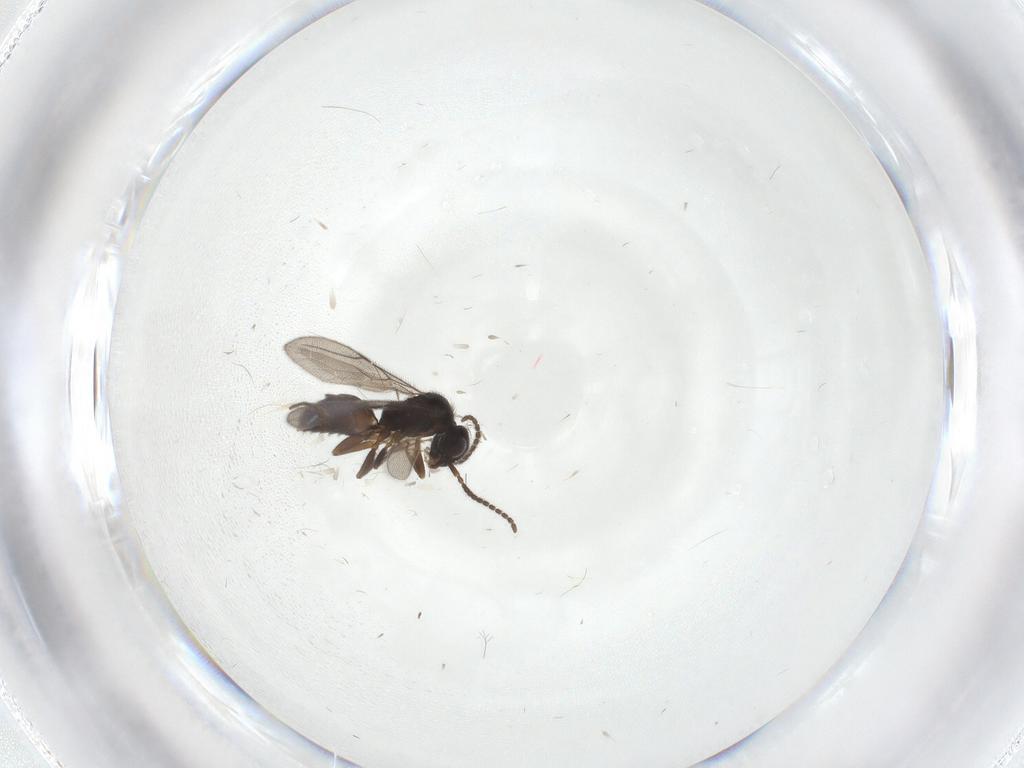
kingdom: Animalia
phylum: Arthropoda
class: Insecta
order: Hymenoptera
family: Bethylidae
